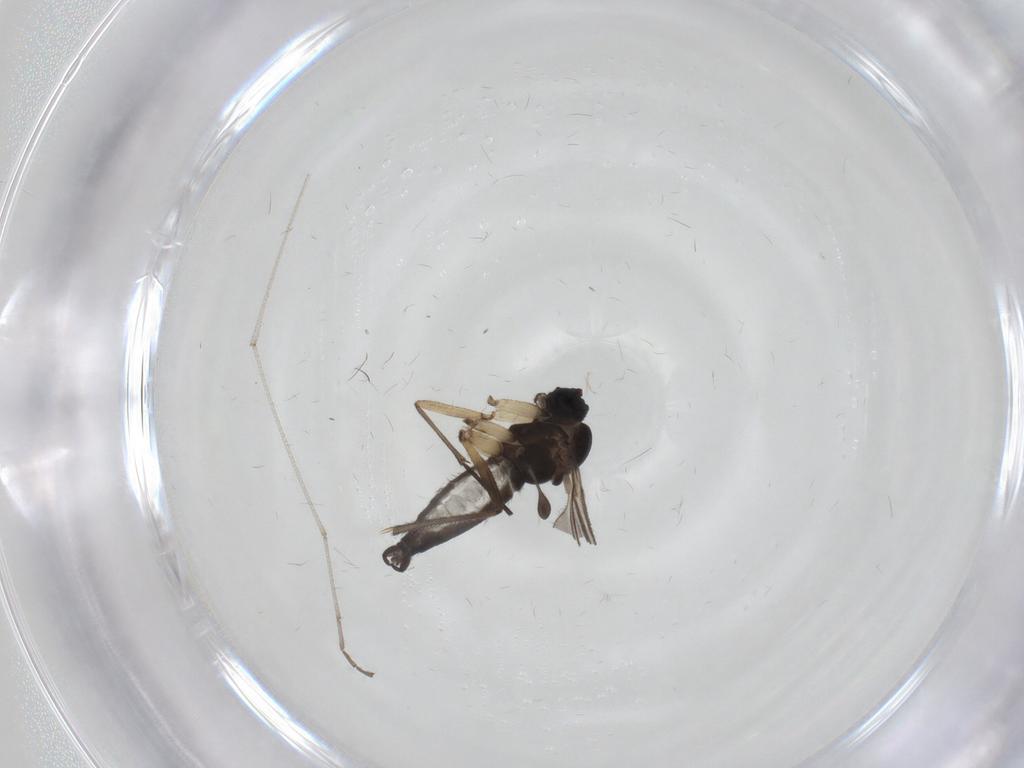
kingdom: Animalia
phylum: Arthropoda
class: Insecta
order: Diptera
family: Sciaridae
